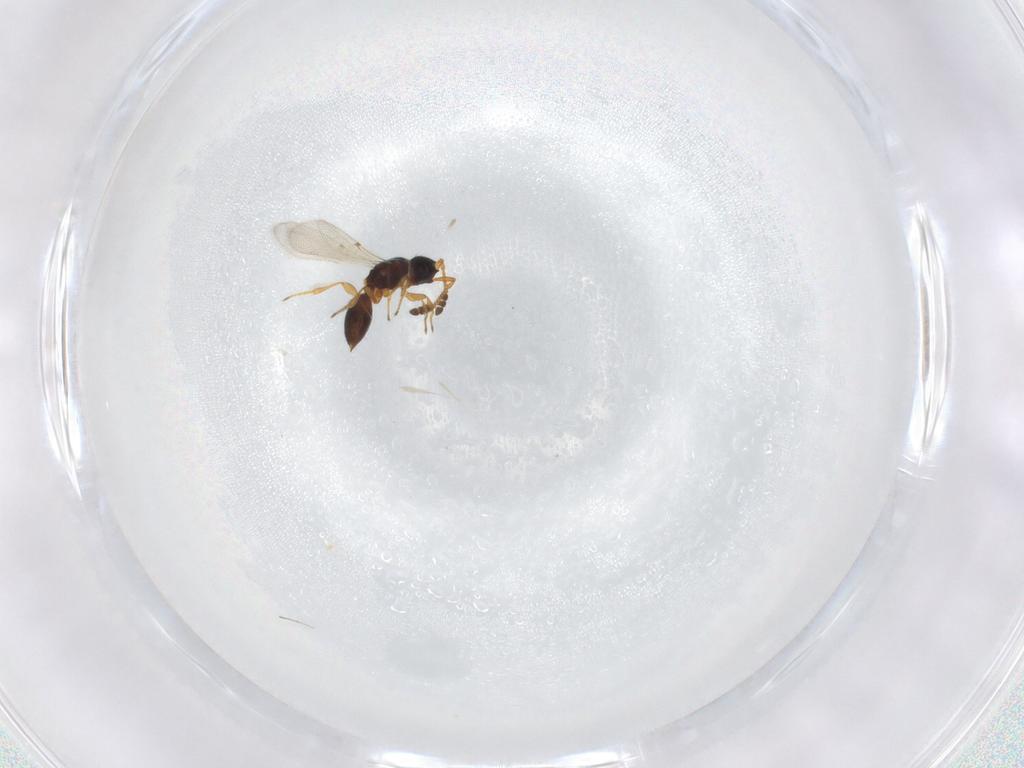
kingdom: Animalia
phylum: Arthropoda
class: Insecta
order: Hymenoptera
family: Diapriidae
